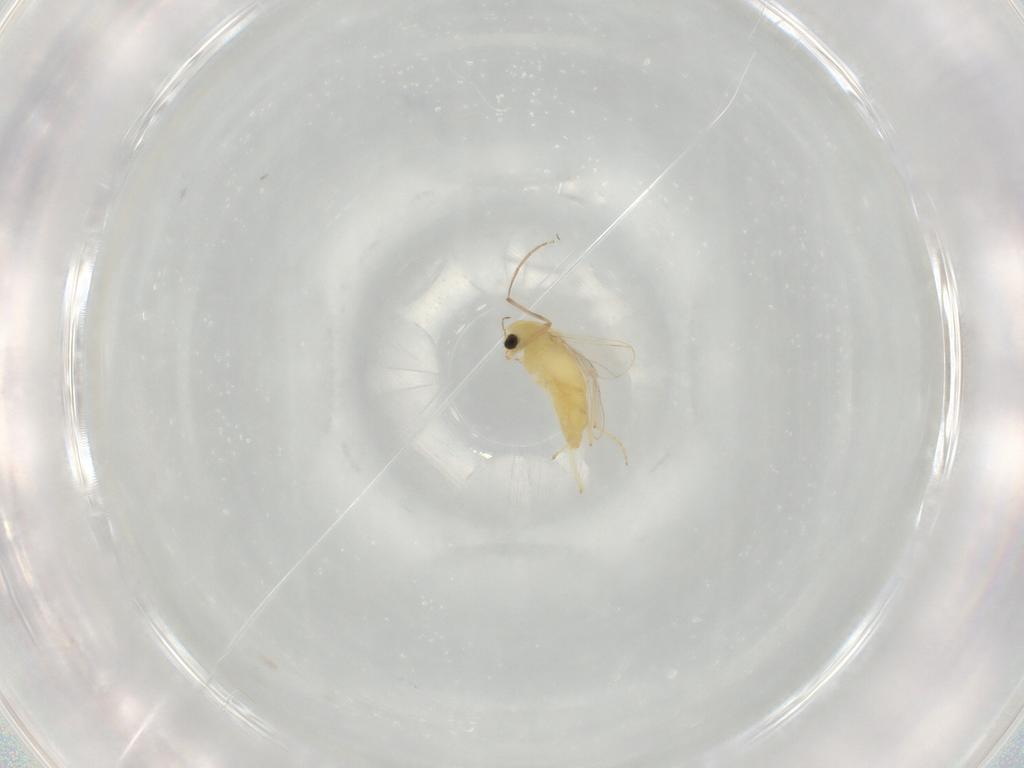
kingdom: Animalia
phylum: Arthropoda
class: Insecta
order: Diptera
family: Chironomidae
